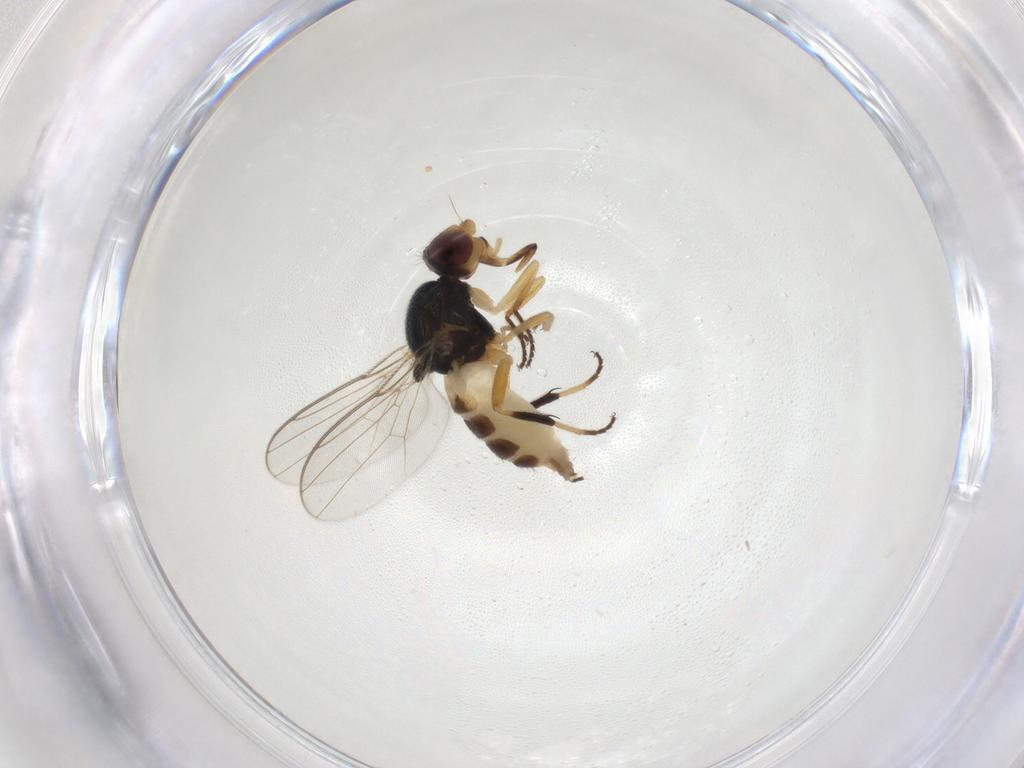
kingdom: Animalia
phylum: Arthropoda
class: Insecta
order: Diptera
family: Chloropidae
